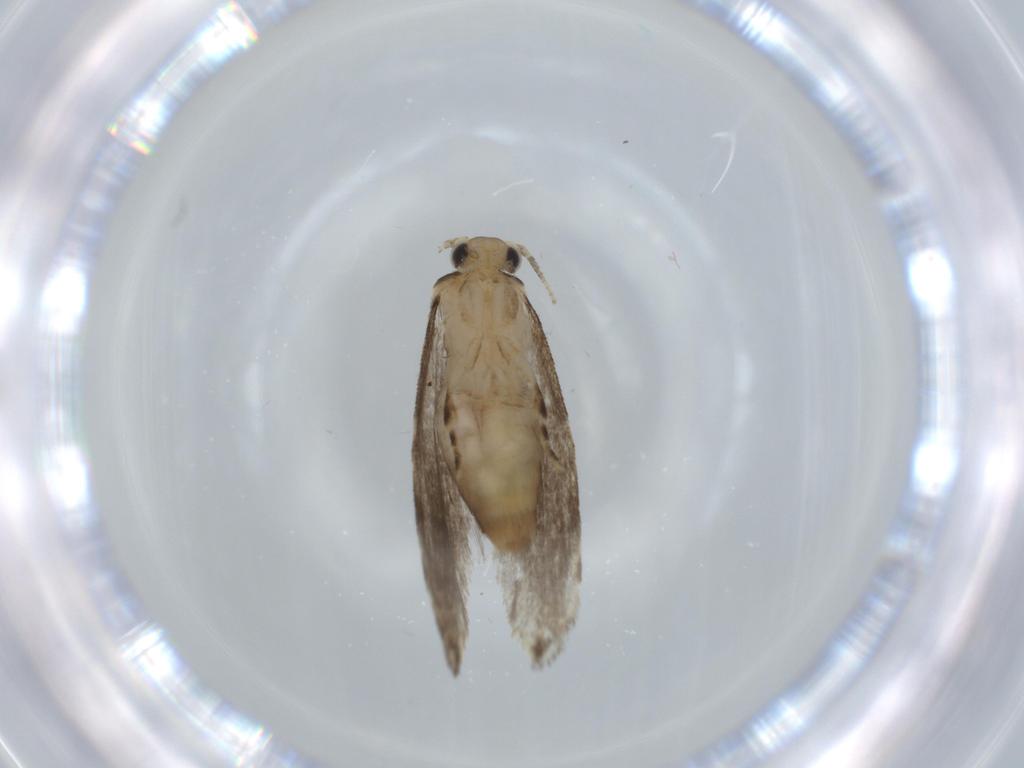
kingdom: Animalia
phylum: Arthropoda
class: Insecta
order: Lepidoptera
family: Tineidae
